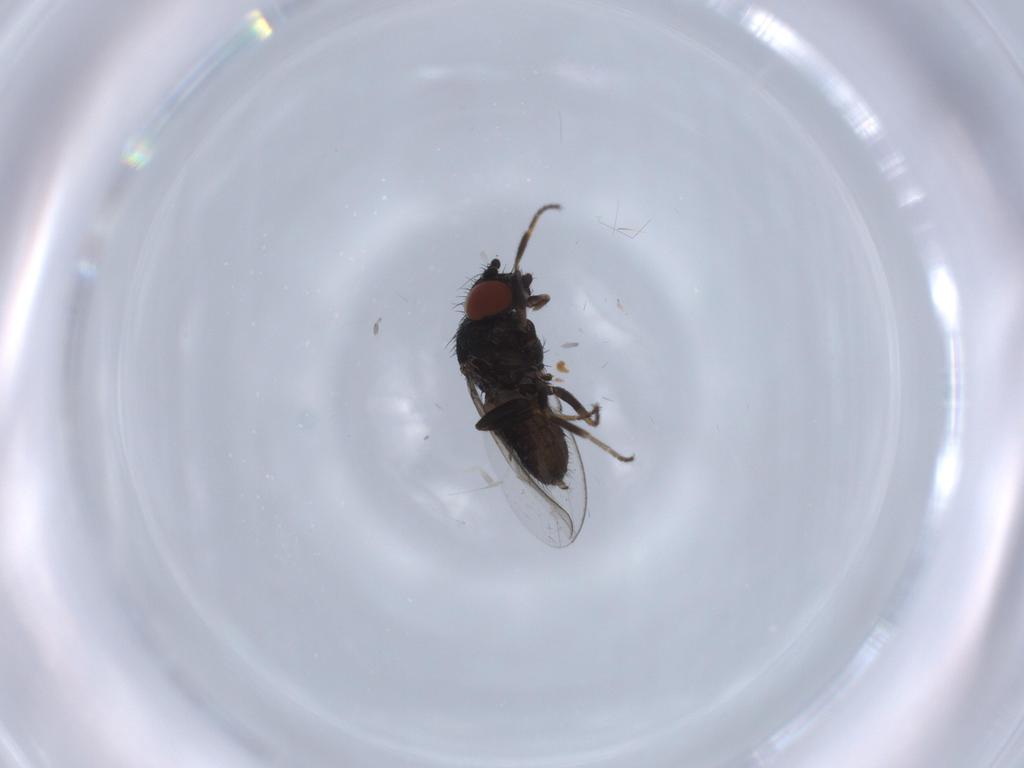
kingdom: Animalia
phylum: Arthropoda
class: Insecta
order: Diptera
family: Milichiidae
